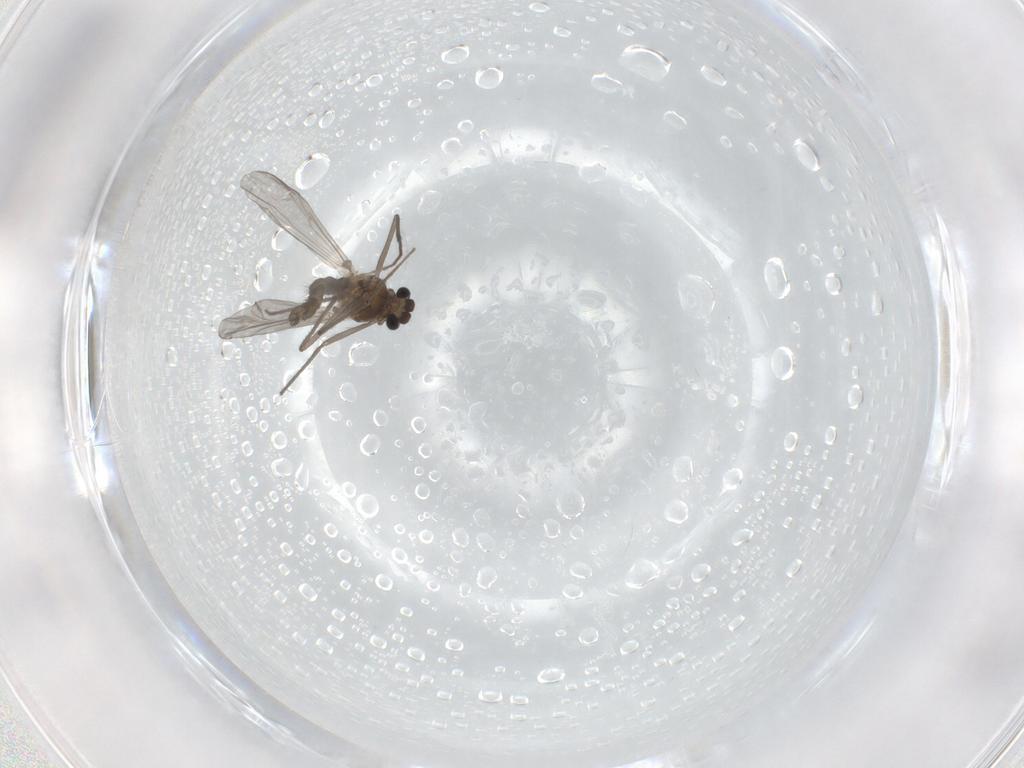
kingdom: Animalia
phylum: Arthropoda
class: Insecta
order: Diptera
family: Chironomidae
